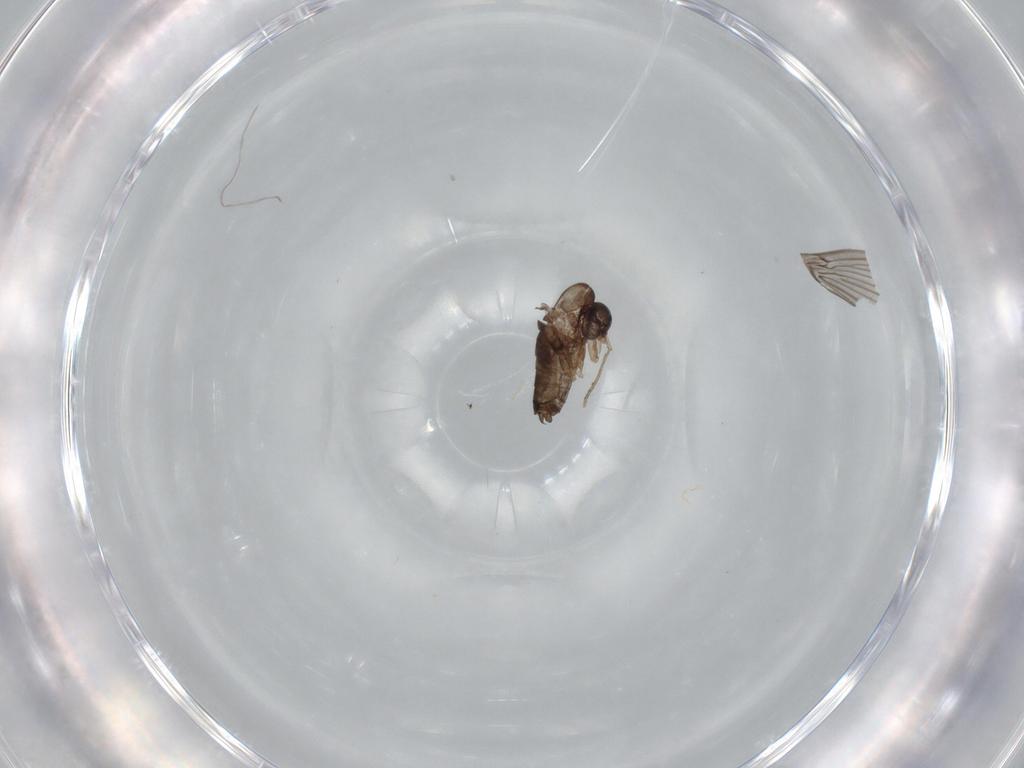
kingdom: Animalia
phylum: Arthropoda
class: Insecta
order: Diptera
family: Psychodidae
